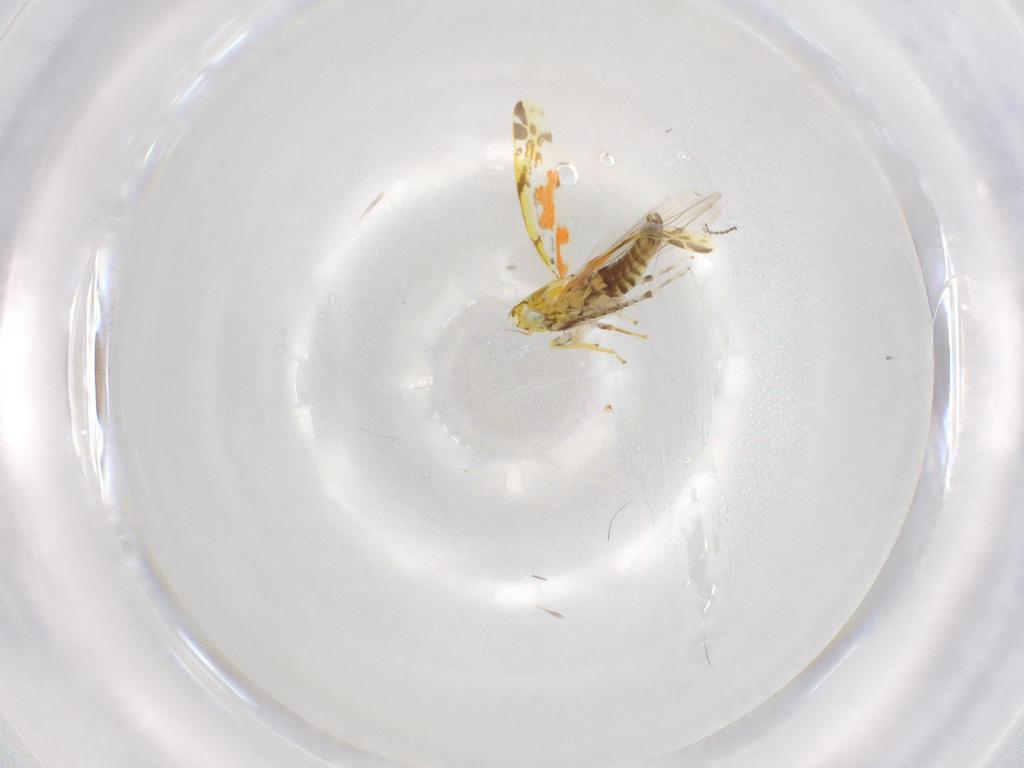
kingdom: Animalia
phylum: Arthropoda
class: Insecta
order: Hemiptera
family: Cicadellidae
